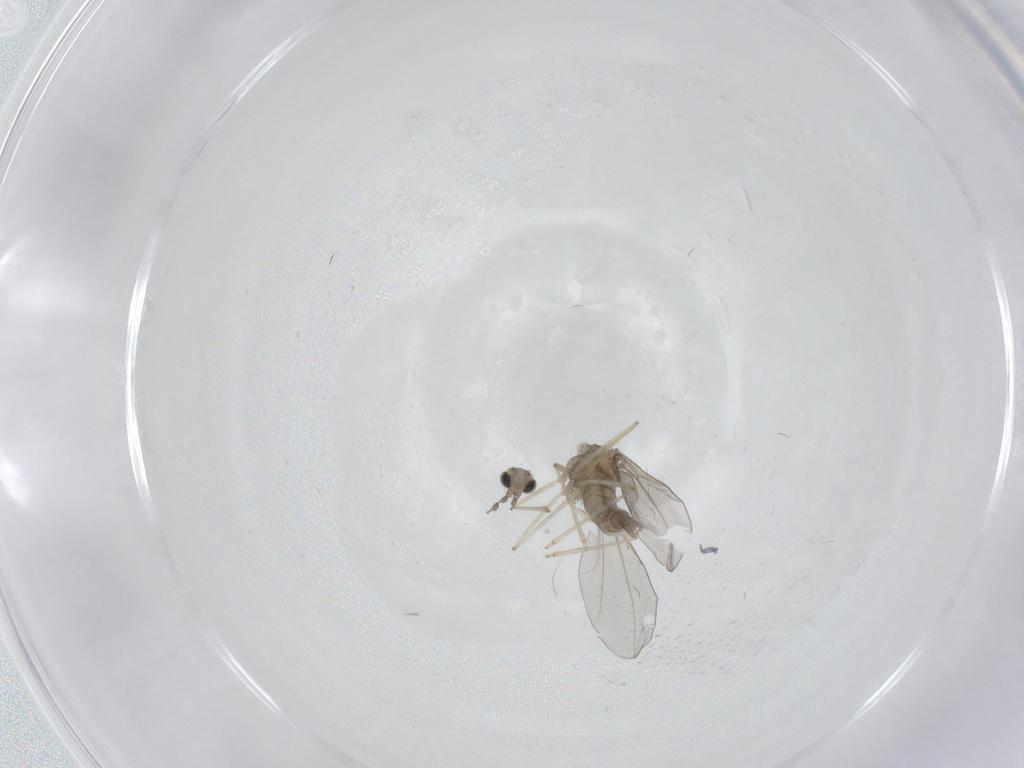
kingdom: Animalia
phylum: Arthropoda
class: Insecta
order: Diptera
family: Cecidomyiidae
